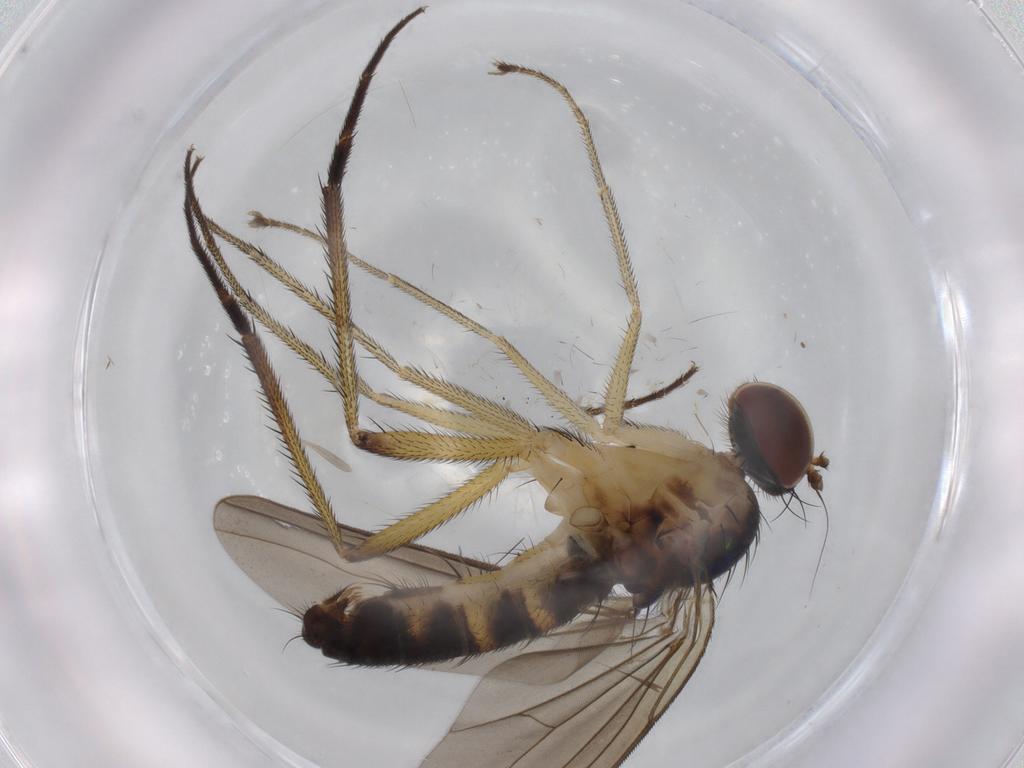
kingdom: Animalia
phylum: Arthropoda
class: Insecta
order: Diptera
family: Dolichopodidae
